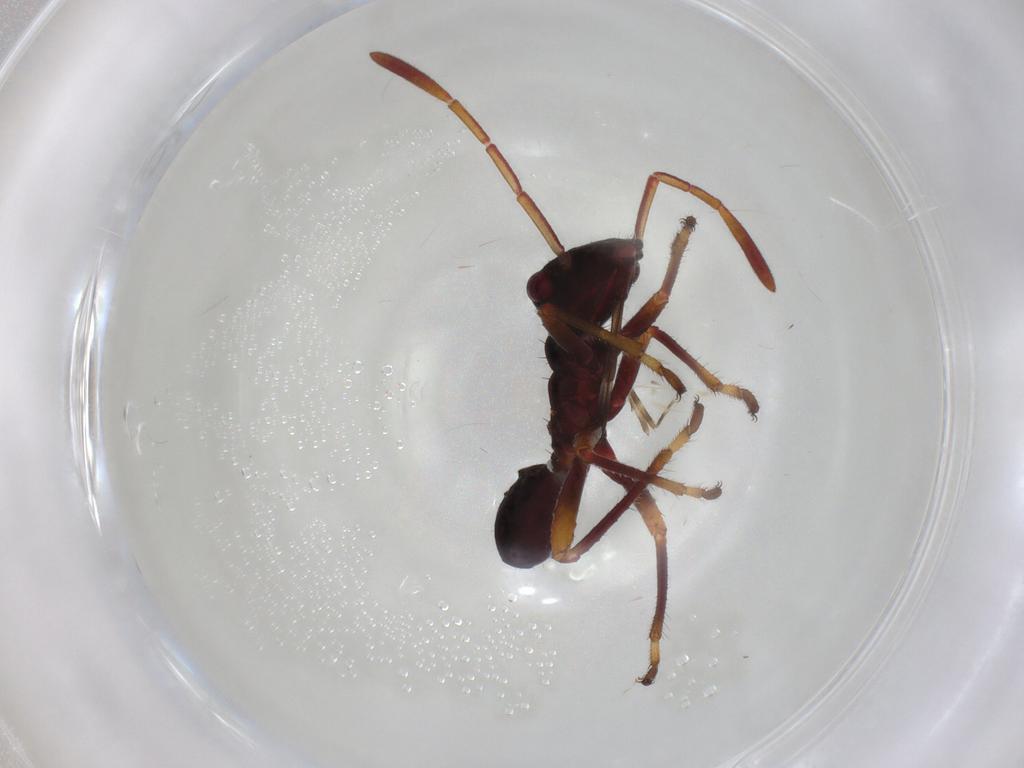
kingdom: Animalia
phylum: Arthropoda
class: Insecta
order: Hemiptera
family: Alydidae
